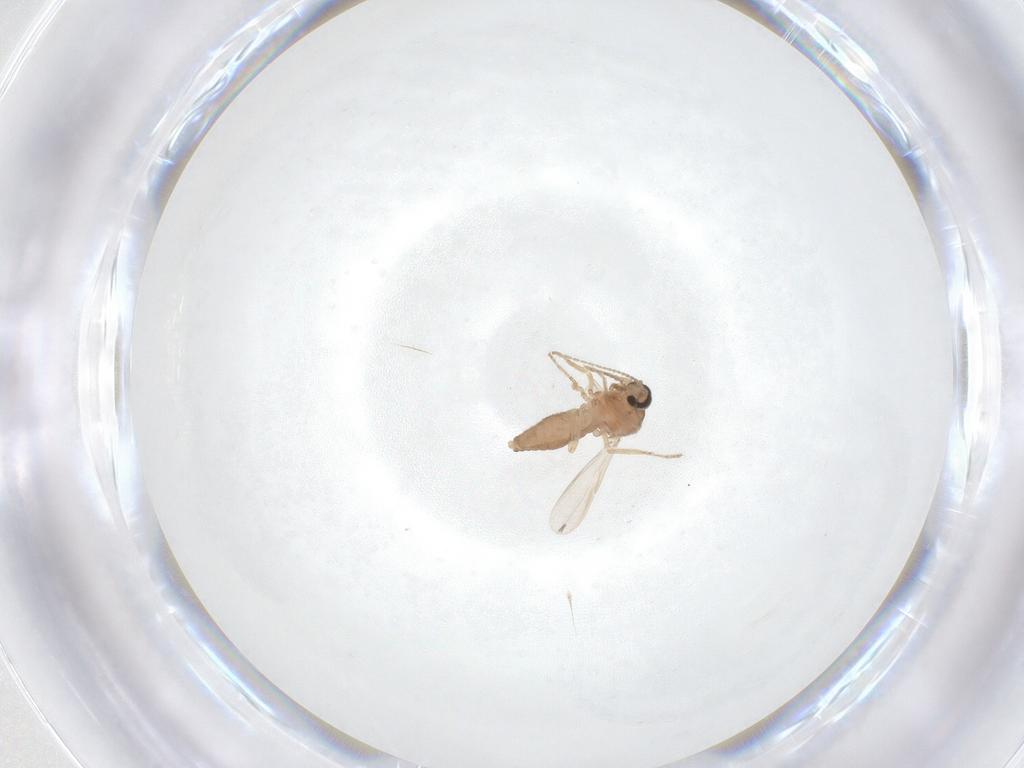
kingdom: Animalia
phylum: Arthropoda
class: Insecta
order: Diptera
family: Ceratopogonidae
